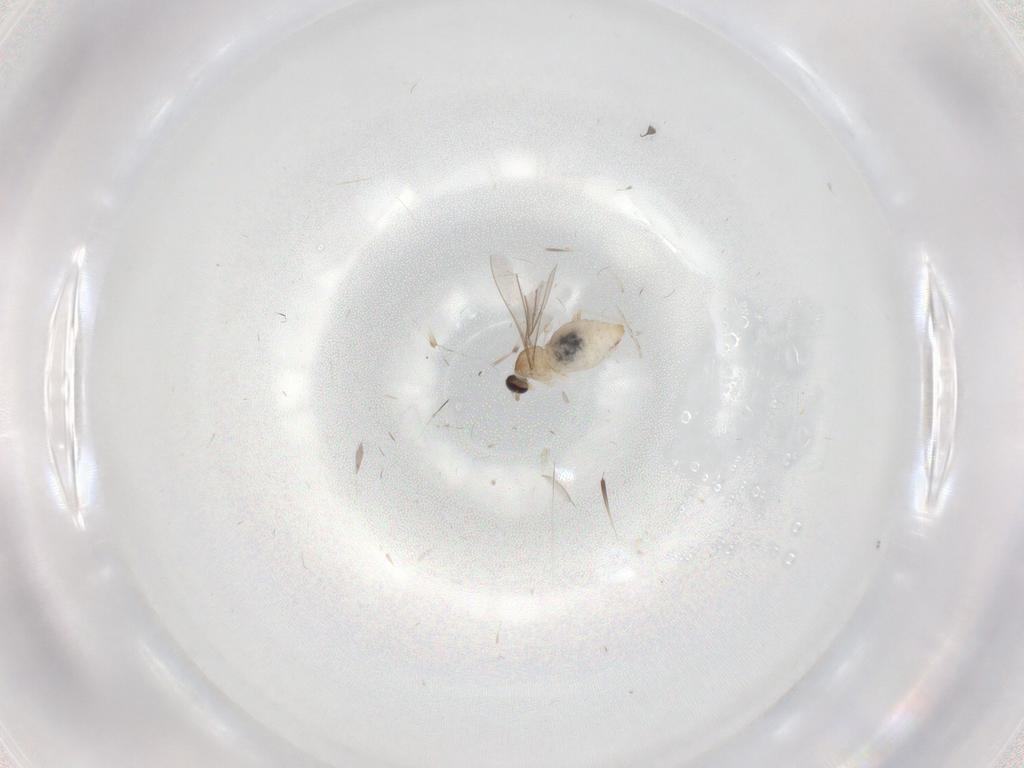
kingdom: Animalia
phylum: Arthropoda
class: Insecta
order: Diptera
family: Cecidomyiidae
